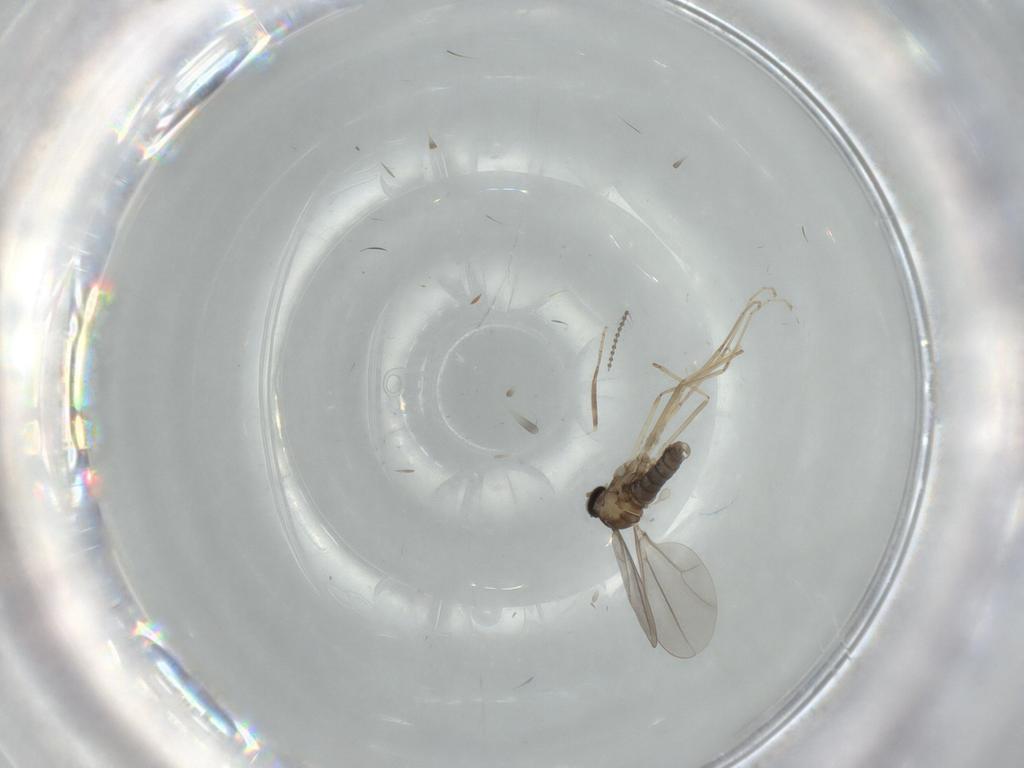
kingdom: Animalia
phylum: Arthropoda
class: Insecta
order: Diptera
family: Cecidomyiidae
